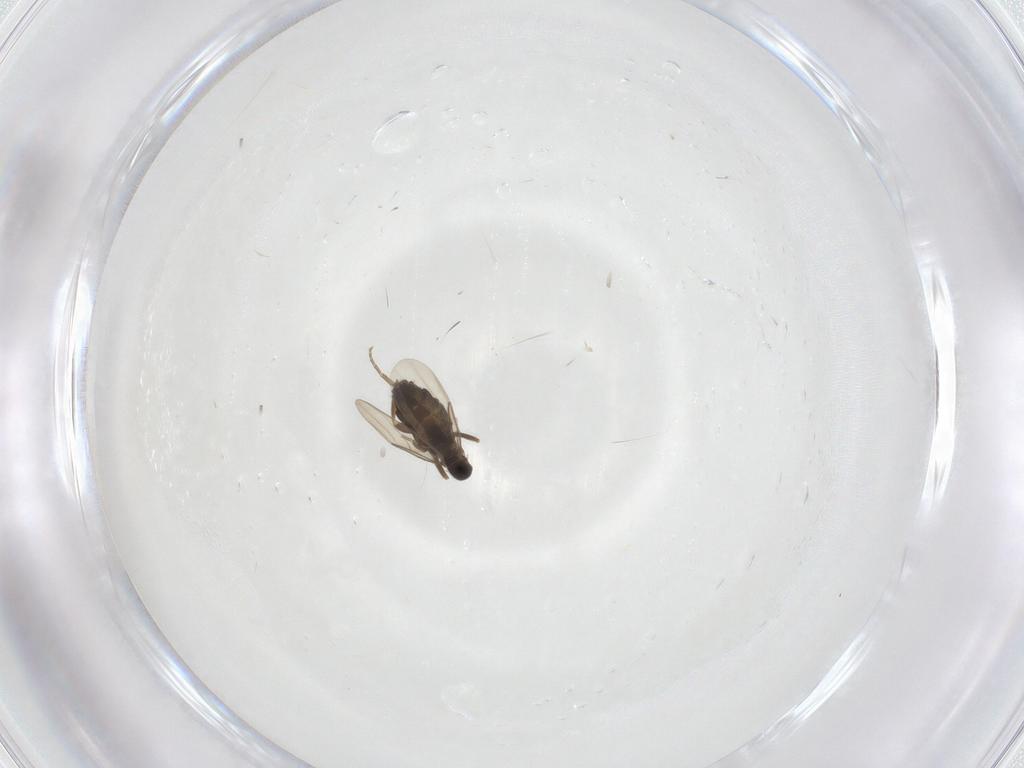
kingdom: Animalia
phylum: Arthropoda
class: Insecta
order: Diptera
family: Phoridae
